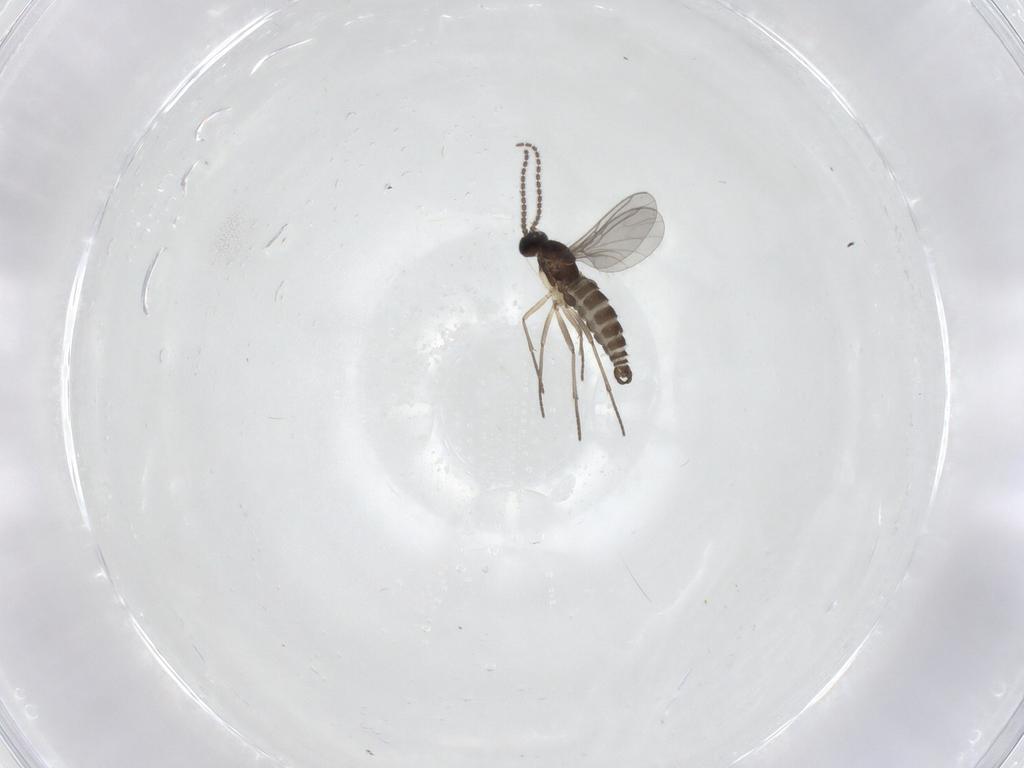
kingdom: Animalia
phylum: Arthropoda
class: Insecta
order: Diptera
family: Sciaridae
